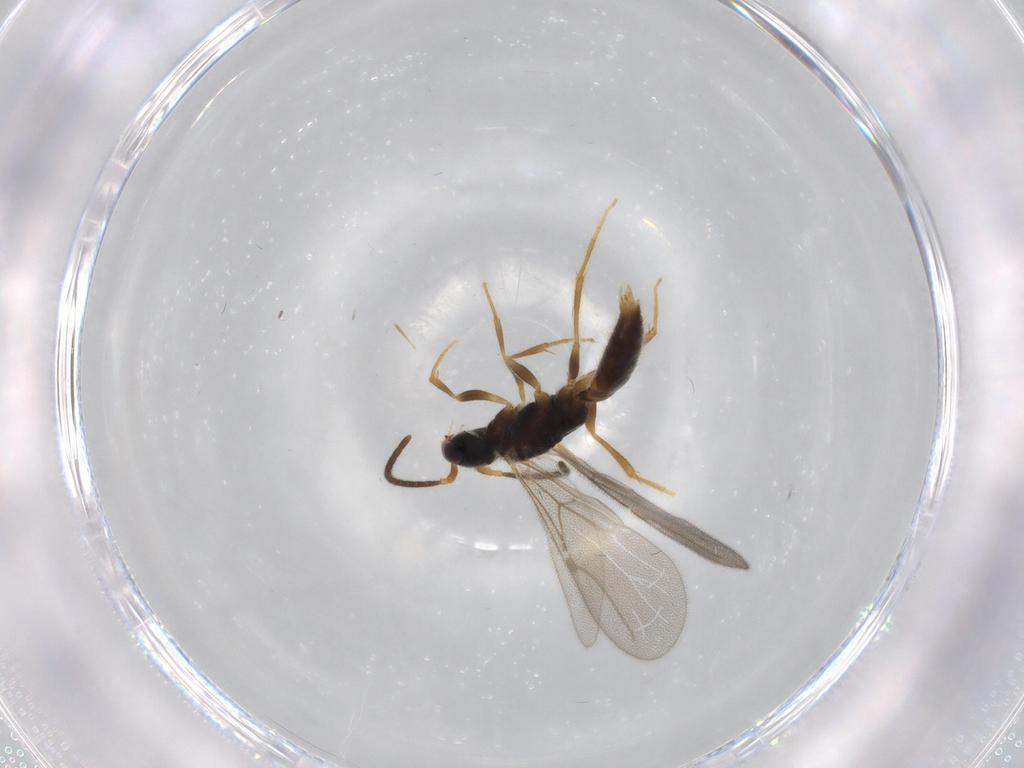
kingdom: Animalia
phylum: Arthropoda
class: Insecta
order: Hymenoptera
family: Bethylidae
